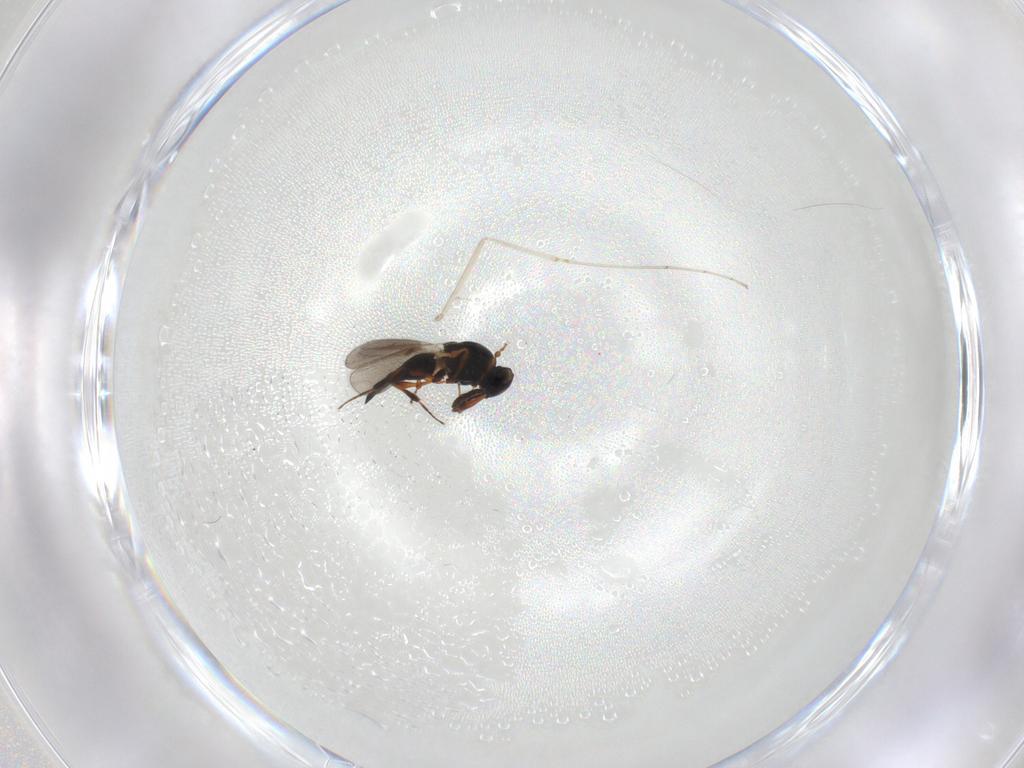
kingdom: Animalia
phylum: Arthropoda
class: Insecta
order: Hymenoptera
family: Platygastridae
